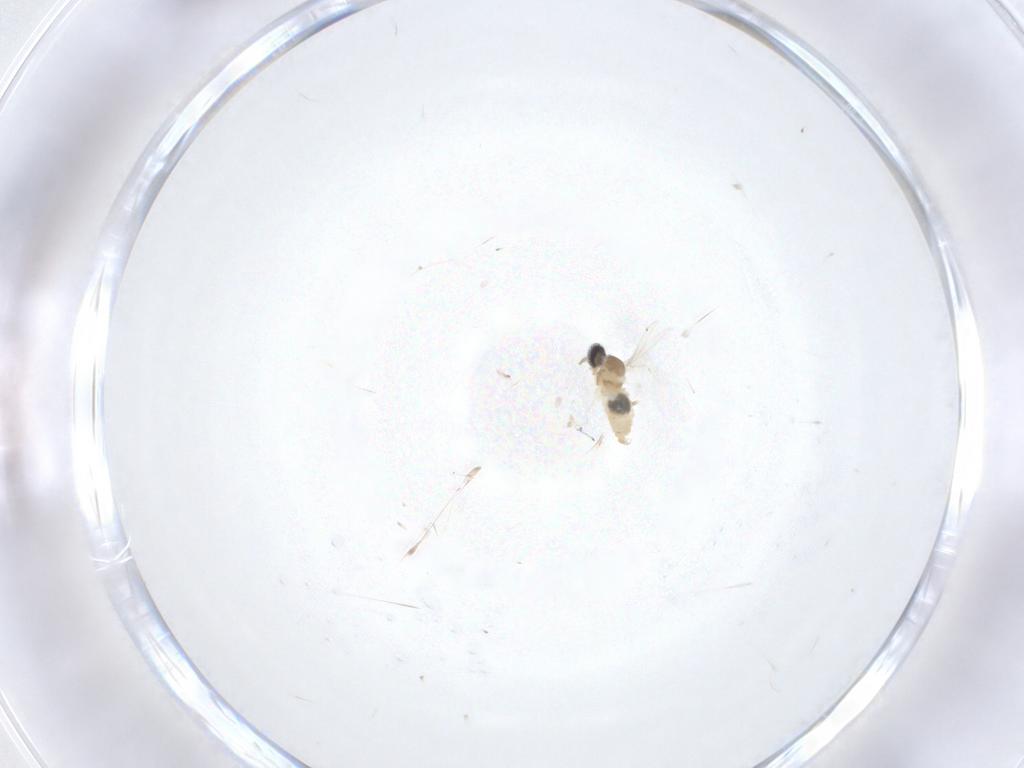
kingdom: Animalia
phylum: Arthropoda
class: Insecta
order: Diptera
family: Cecidomyiidae
